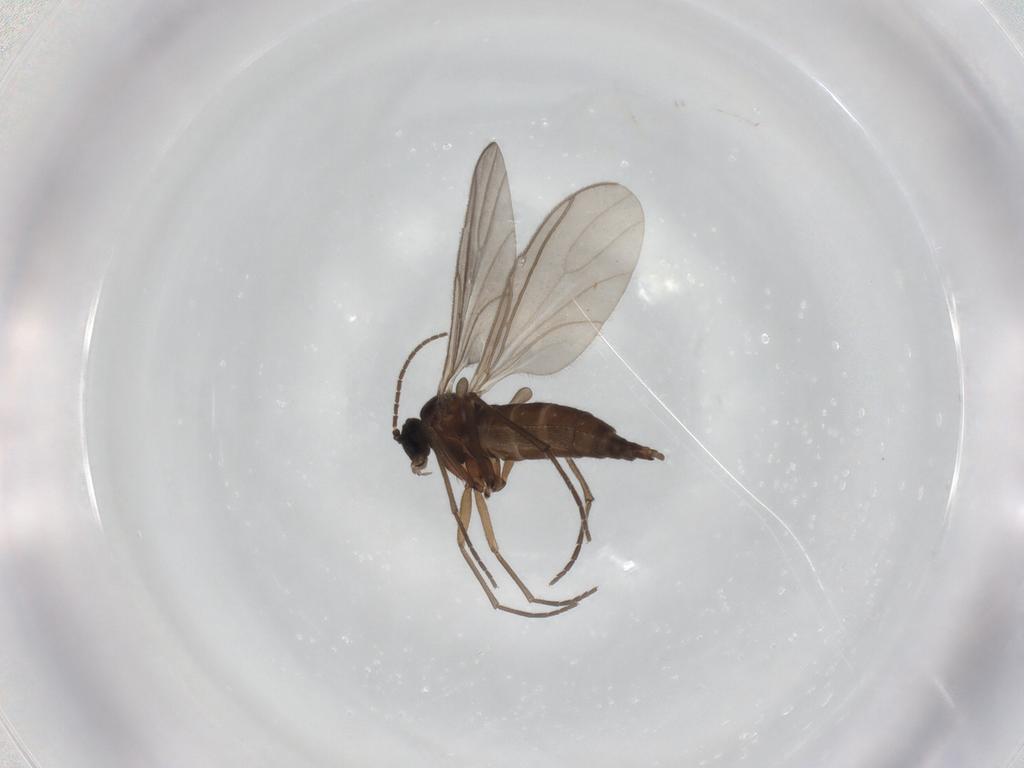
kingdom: Animalia
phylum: Arthropoda
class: Insecta
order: Diptera
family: Sciaridae
